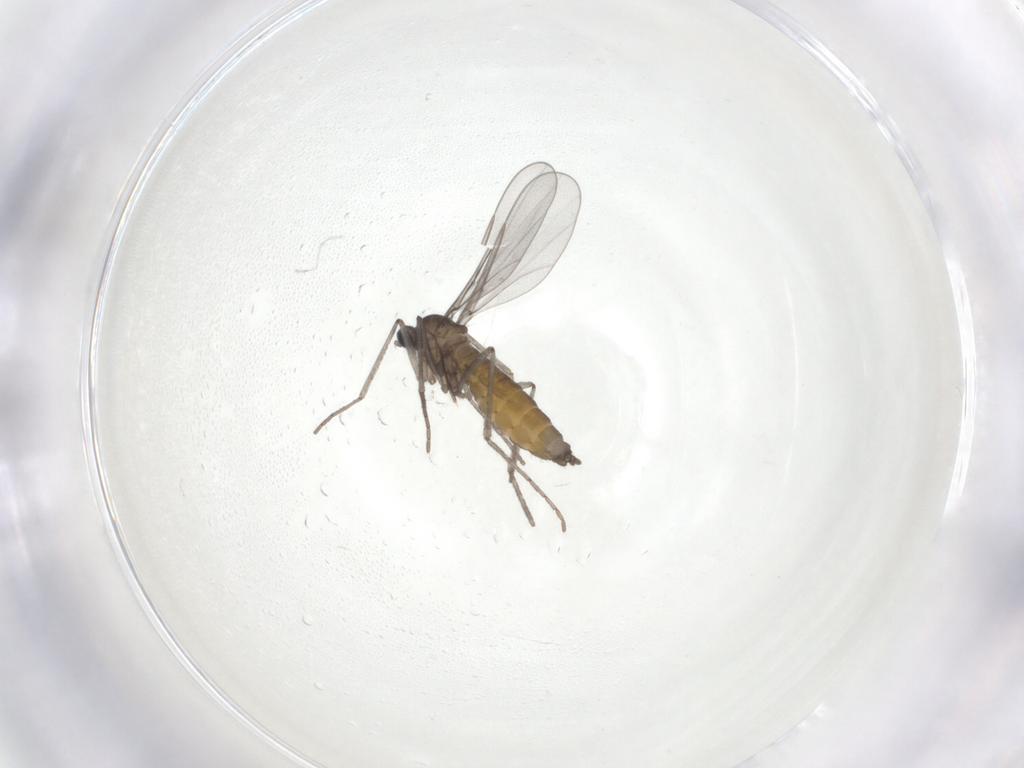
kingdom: Animalia
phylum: Arthropoda
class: Insecta
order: Diptera
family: Cecidomyiidae
